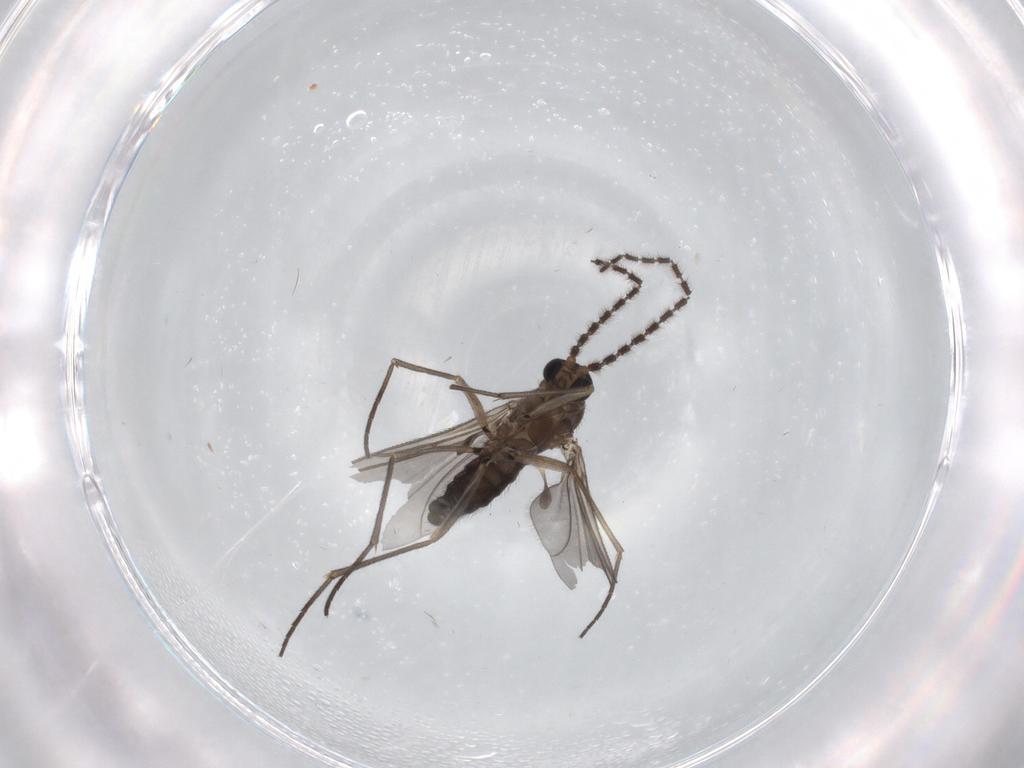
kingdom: Animalia
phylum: Arthropoda
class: Insecta
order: Diptera
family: Sciaridae
